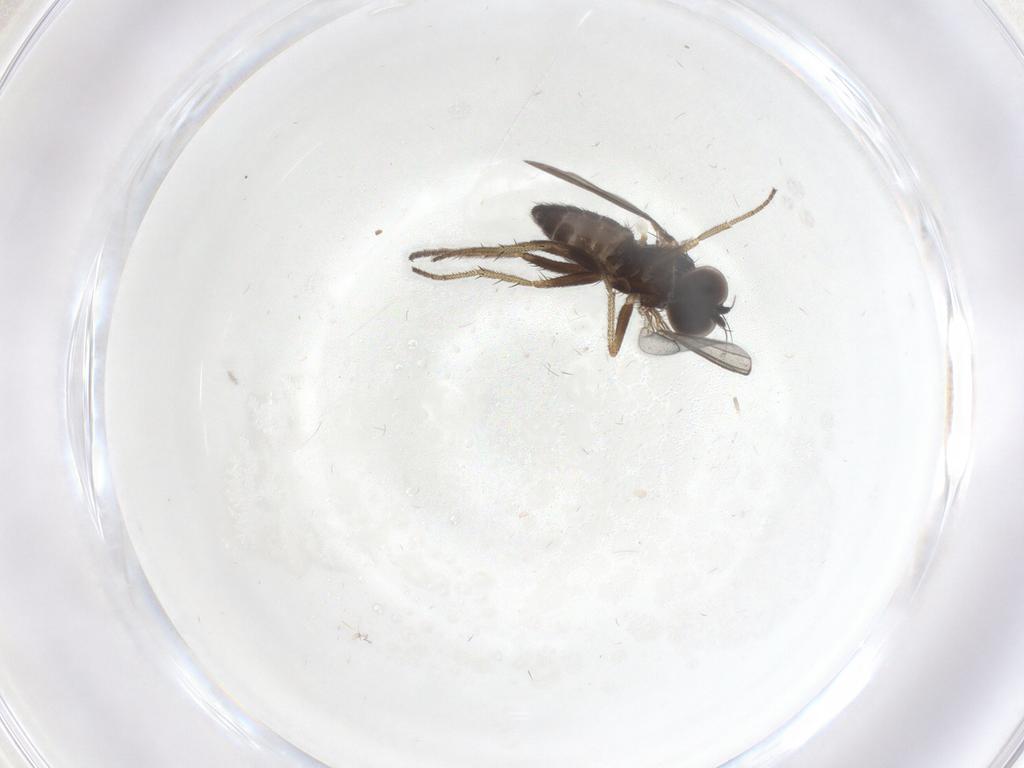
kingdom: Animalia
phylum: Arthropoda
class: Insecta
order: Diptera
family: Dolichopodidae
